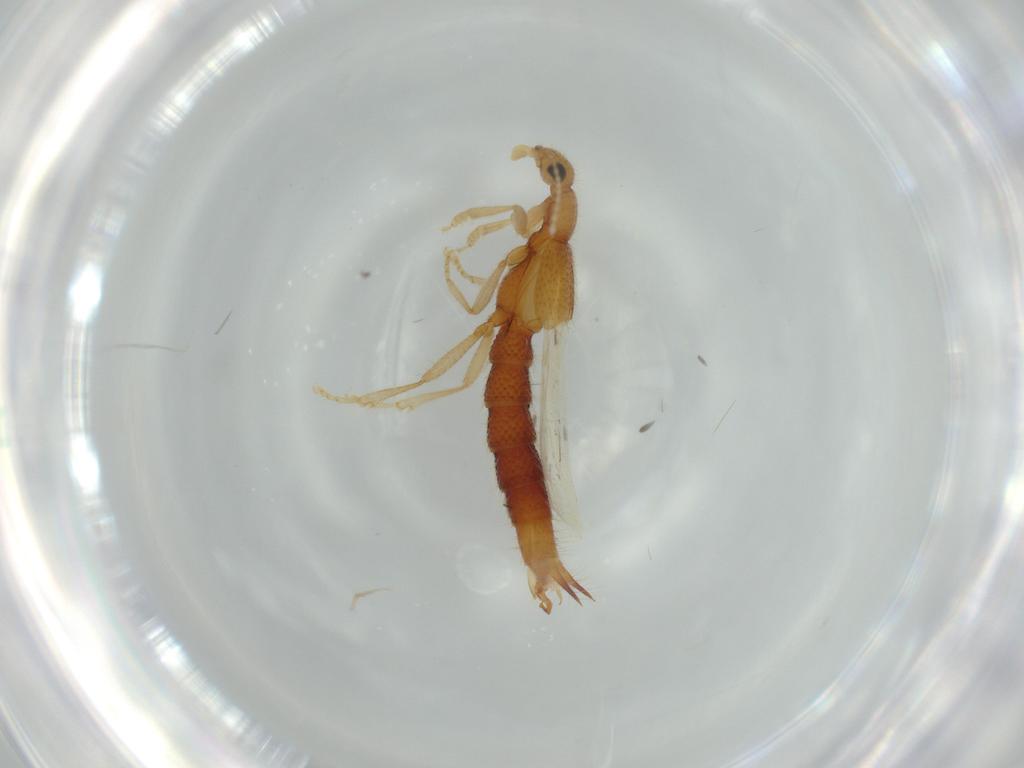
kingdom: Animalia
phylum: Arthropoda
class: Insecta
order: Coleoptera
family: Staphylinidae
